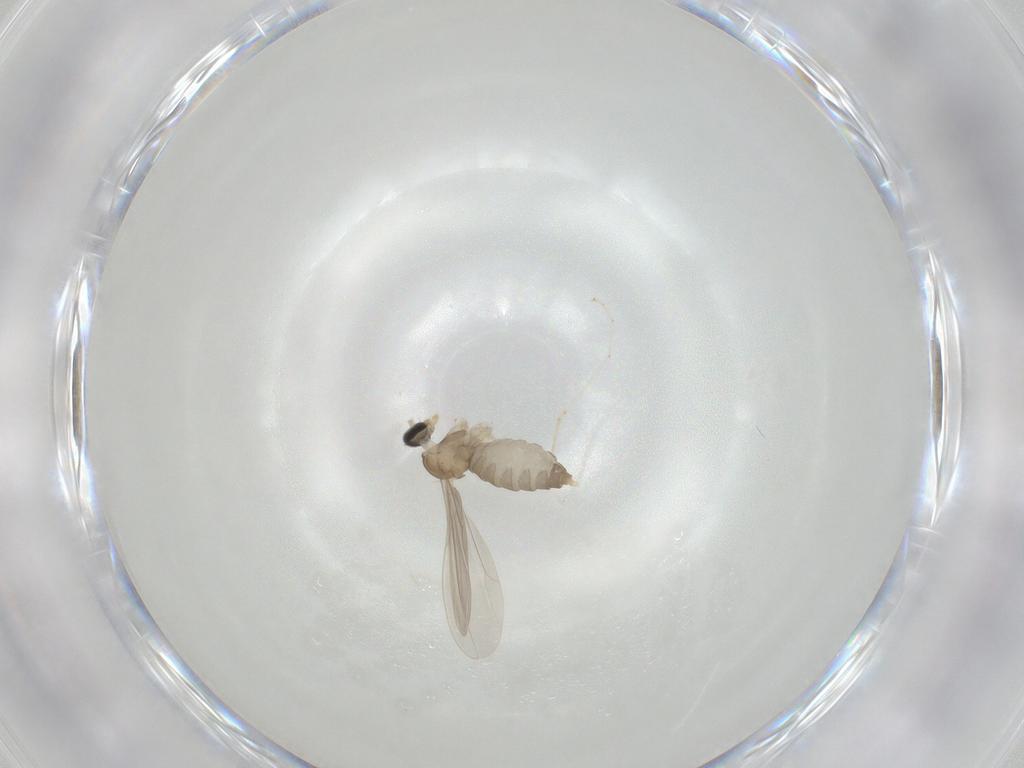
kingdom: Animalia
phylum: Arthropoda
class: Insecta
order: Diptera
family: Cecidomyiidae
